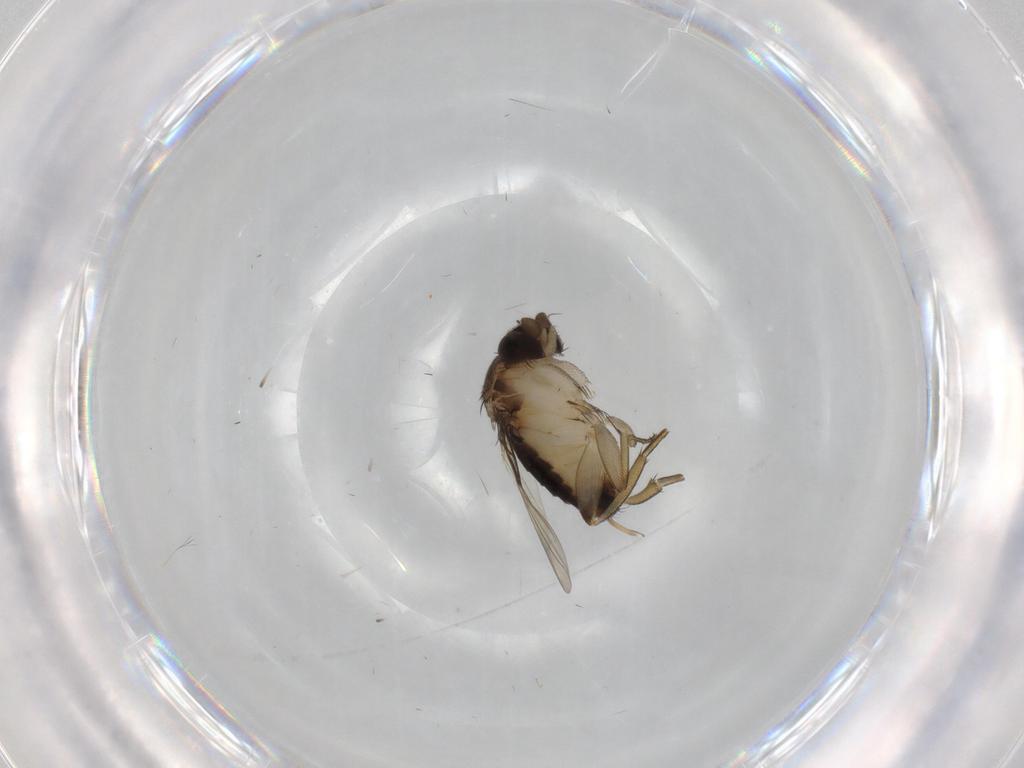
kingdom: Animalia
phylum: Arthropoda
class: Insecta
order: Diptera
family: Phoridae
